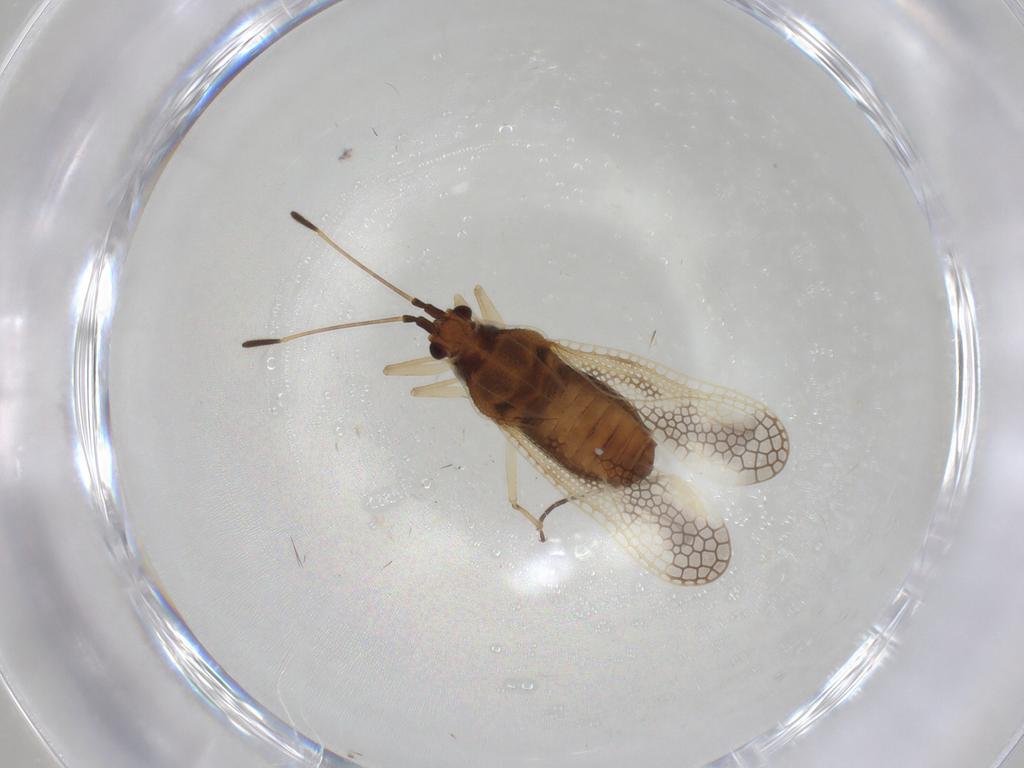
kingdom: Animalia
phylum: Arthropoda
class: Insecta
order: Hemiptera
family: Tingidae
